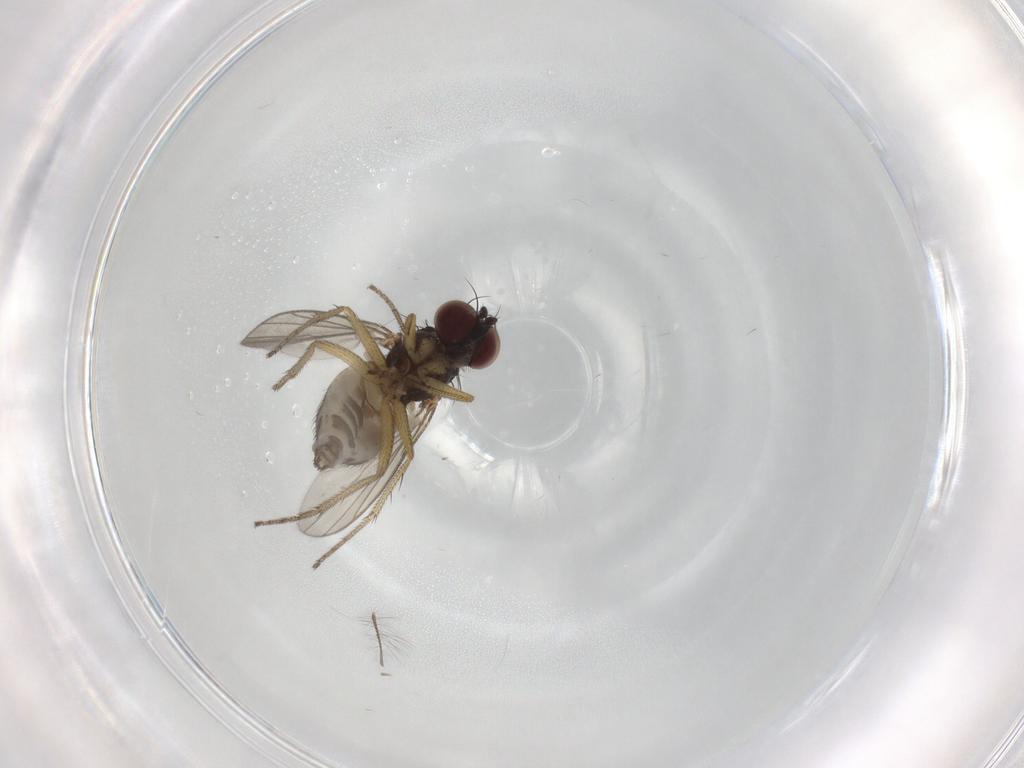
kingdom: Animalia
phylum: Arthropoda
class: Insecta
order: Diptera
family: Dolichopodidae
